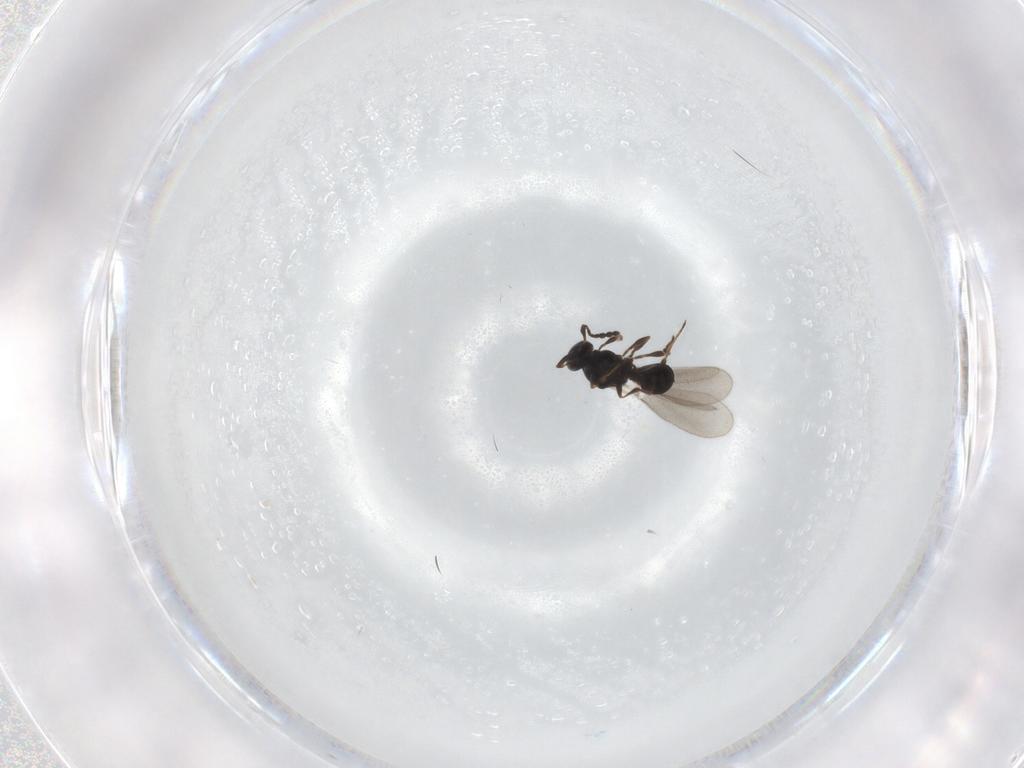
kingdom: Animalia
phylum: Arthropoda
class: Insecta
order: Hymenoptera
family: Platygastridae
